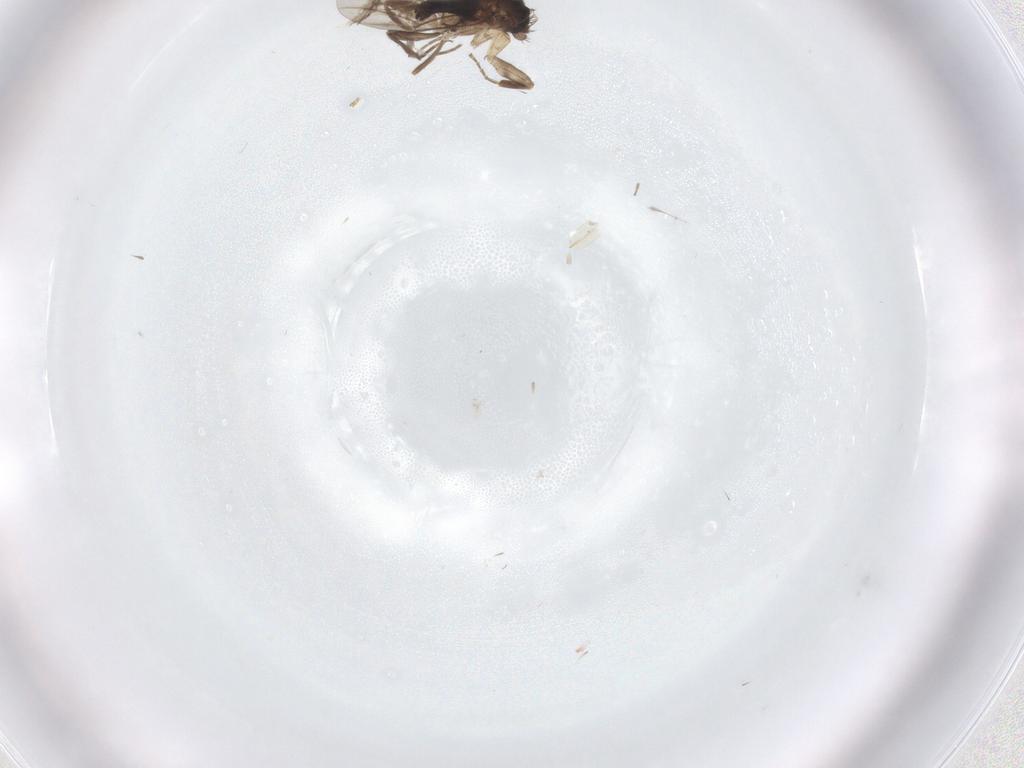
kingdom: Animalia
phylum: Arthropoda
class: Insecta
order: Diptera
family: Phoridae
